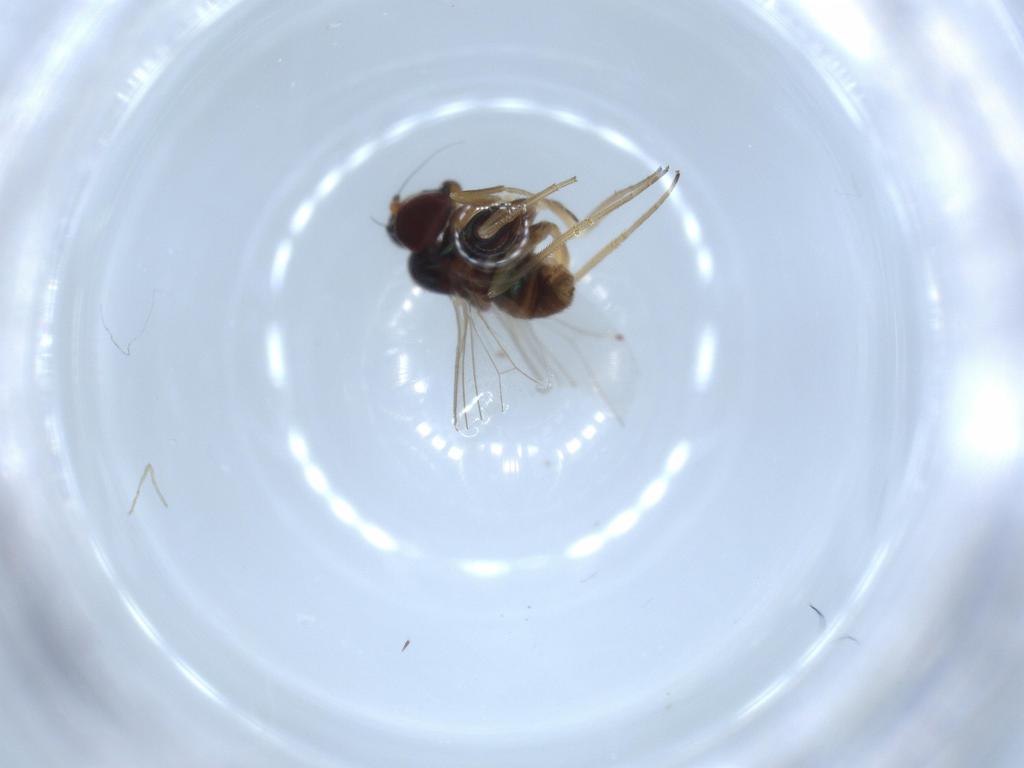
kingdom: Animalia
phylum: Arthropoda
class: Insecta
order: Diptera
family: Dolichopodidae
